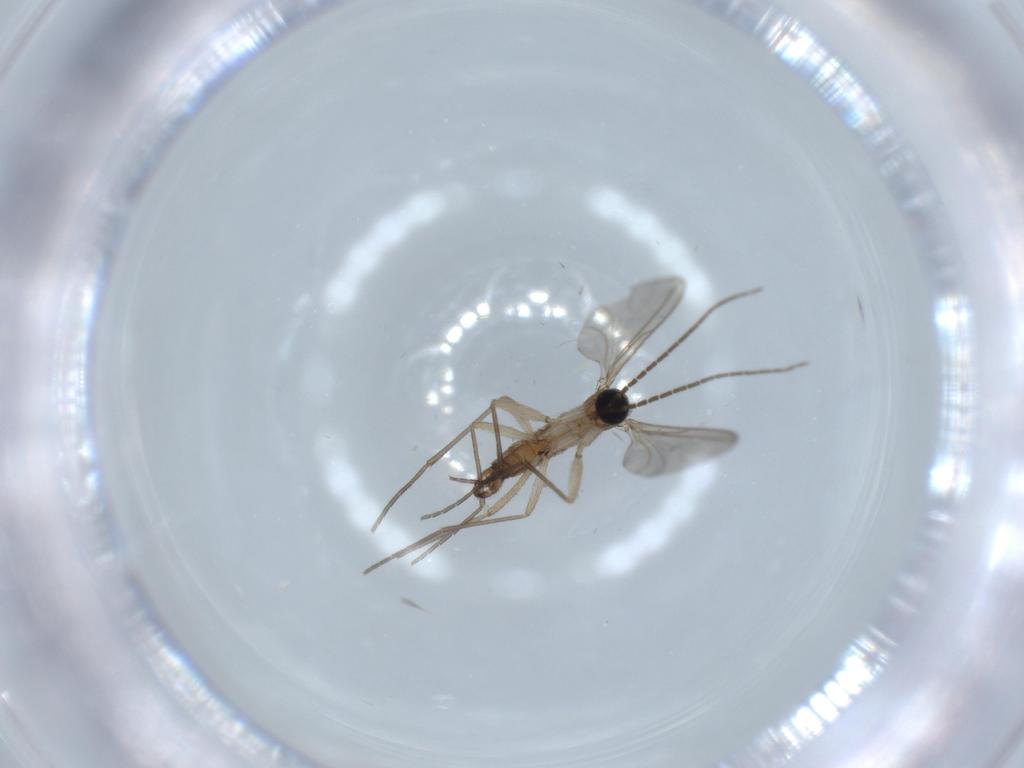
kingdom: Animalia
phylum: Arthropoda
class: Insecta
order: Diptera
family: Sciaridae
